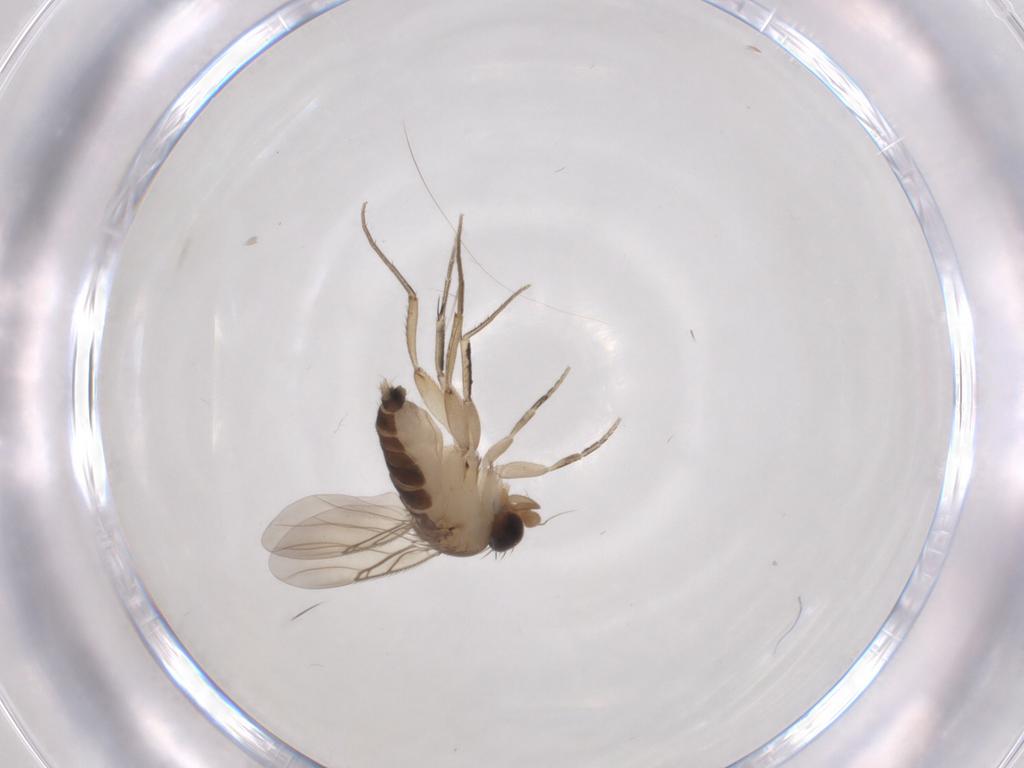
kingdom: Animalia
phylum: Arthropoda
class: Insecta
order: Diptera
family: Phoridae
